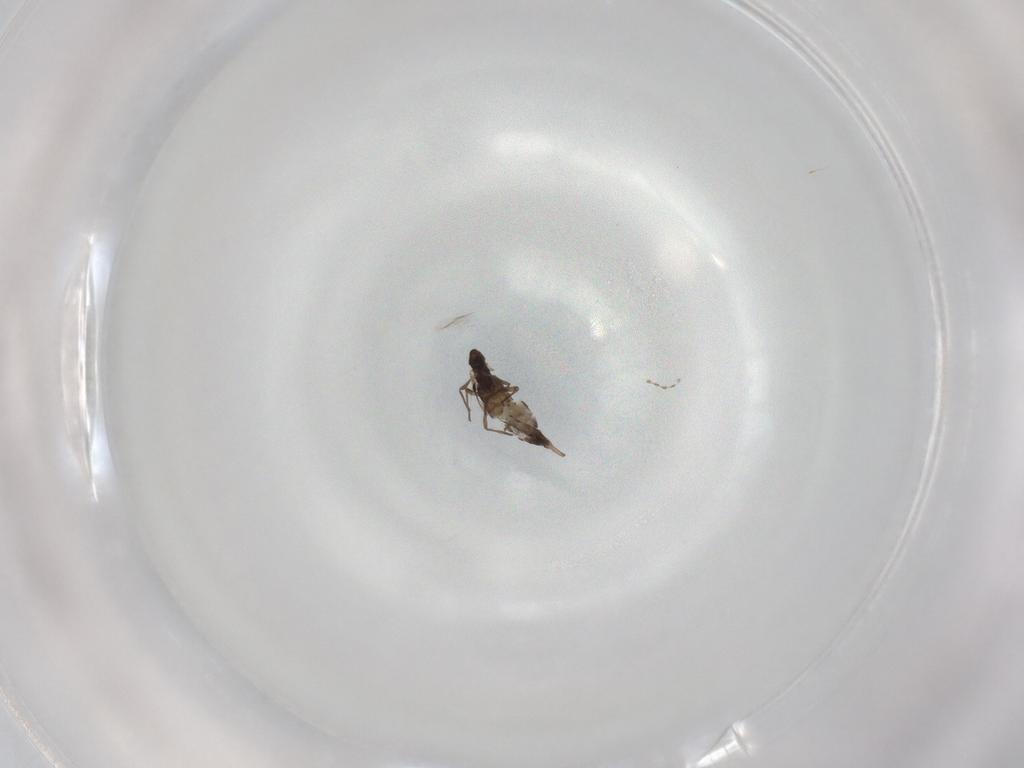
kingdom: Animalia
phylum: Arthropoda
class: Insecta
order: Diptera
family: Chironomidae
